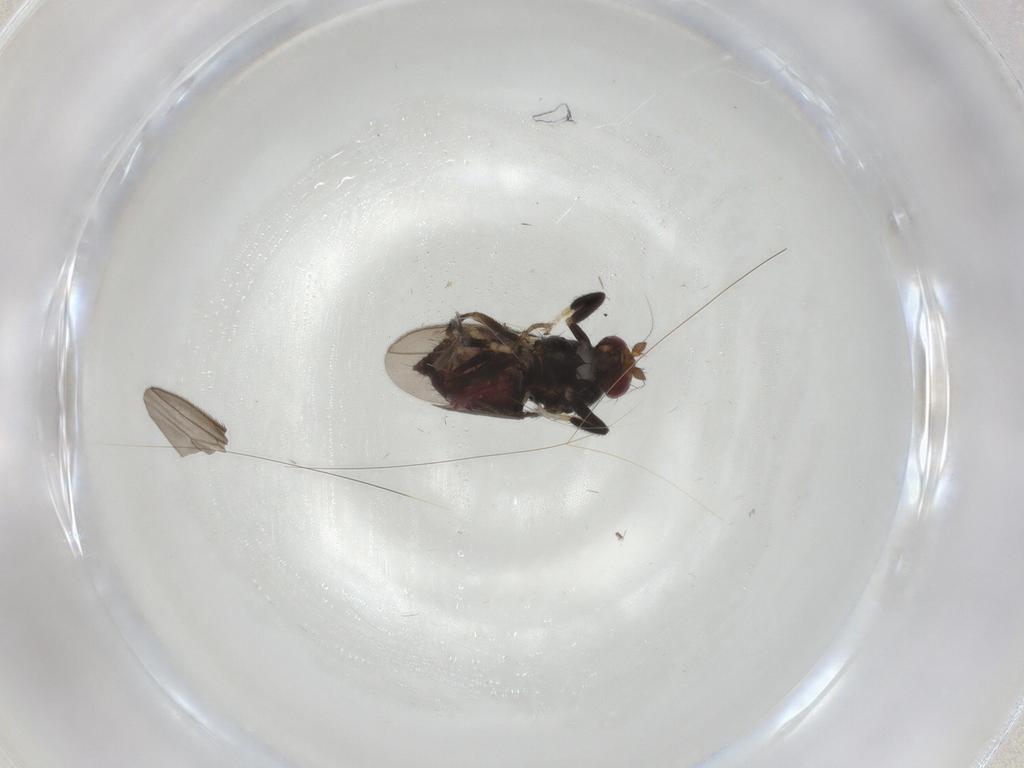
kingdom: Animalia
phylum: Arthropoda
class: Insecta
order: Diptera
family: Sphaeroceridae
